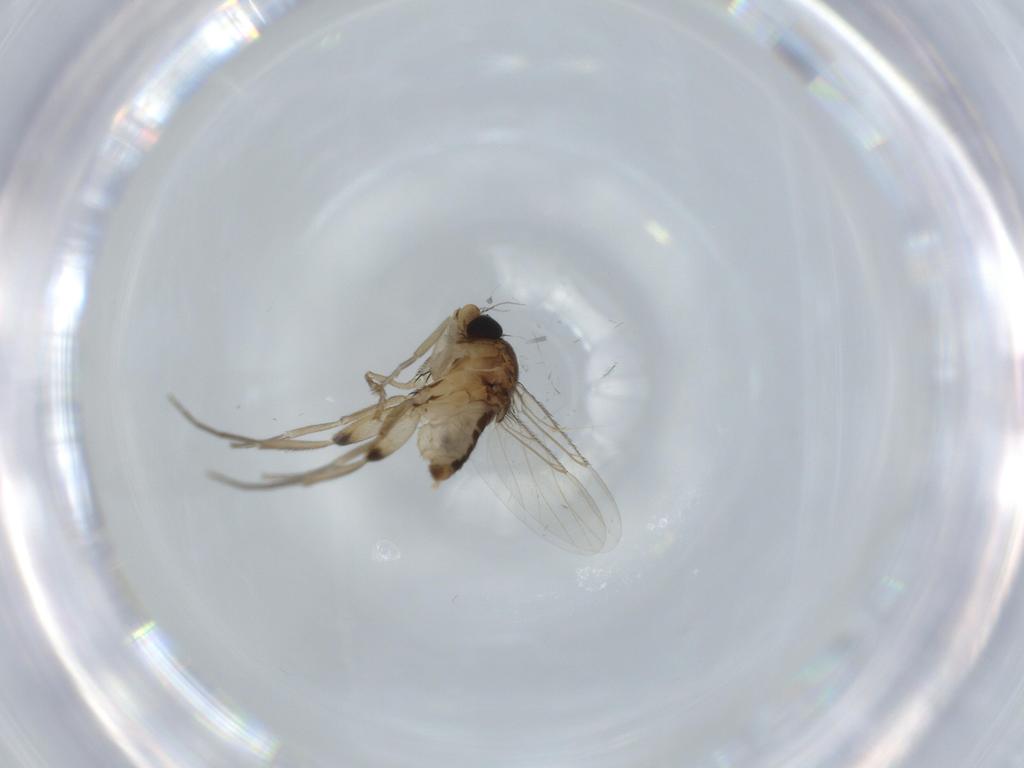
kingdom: Animalia
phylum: Arthropoda
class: Insecta
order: Diptera
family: Phoridae
